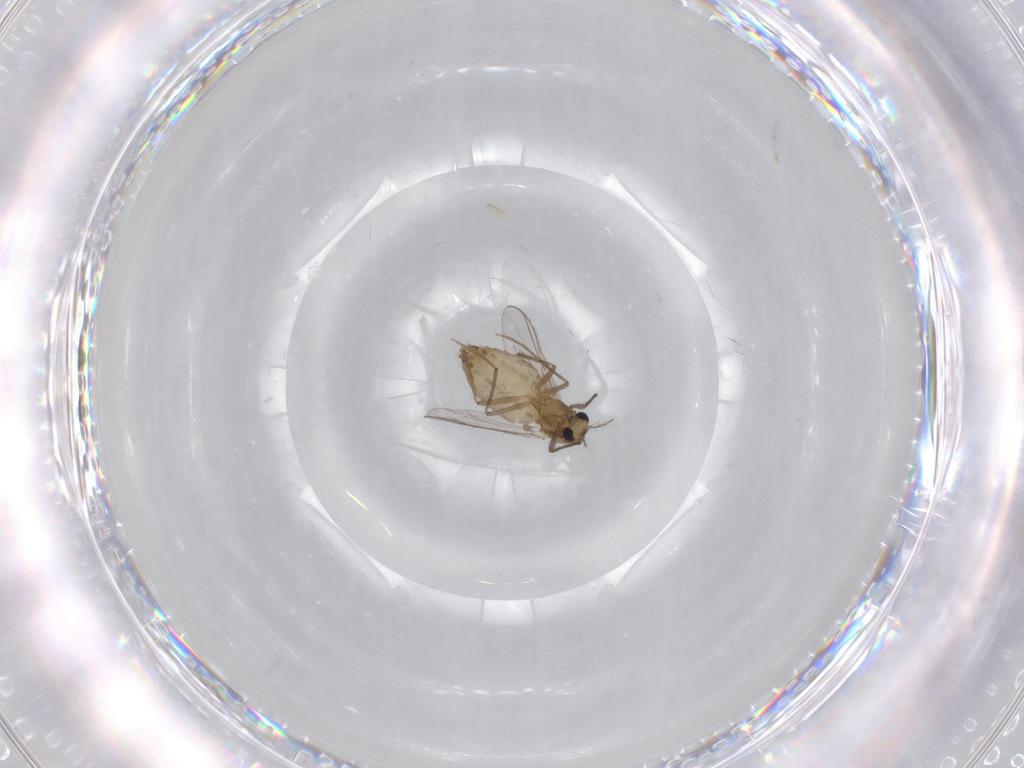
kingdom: Animalia
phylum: Arthropoda
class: Insecta
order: Diptera
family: Chironomidae
